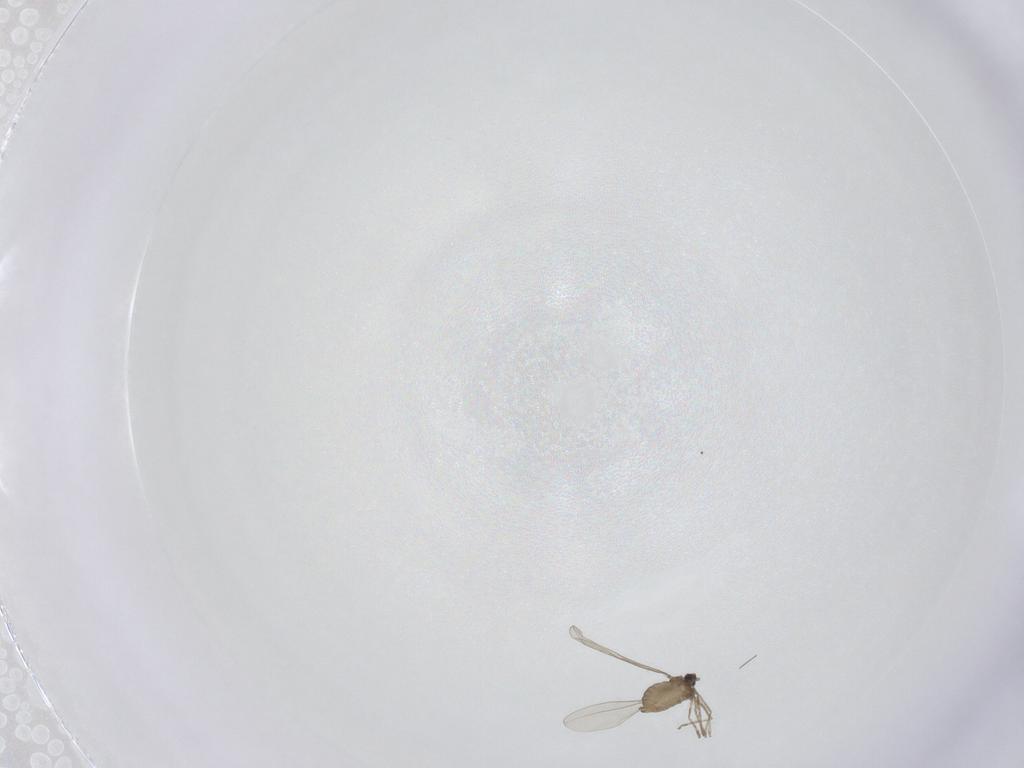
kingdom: Animalia
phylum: Arthropoda
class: Insecta
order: Diptera
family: Cecidomyiidae
